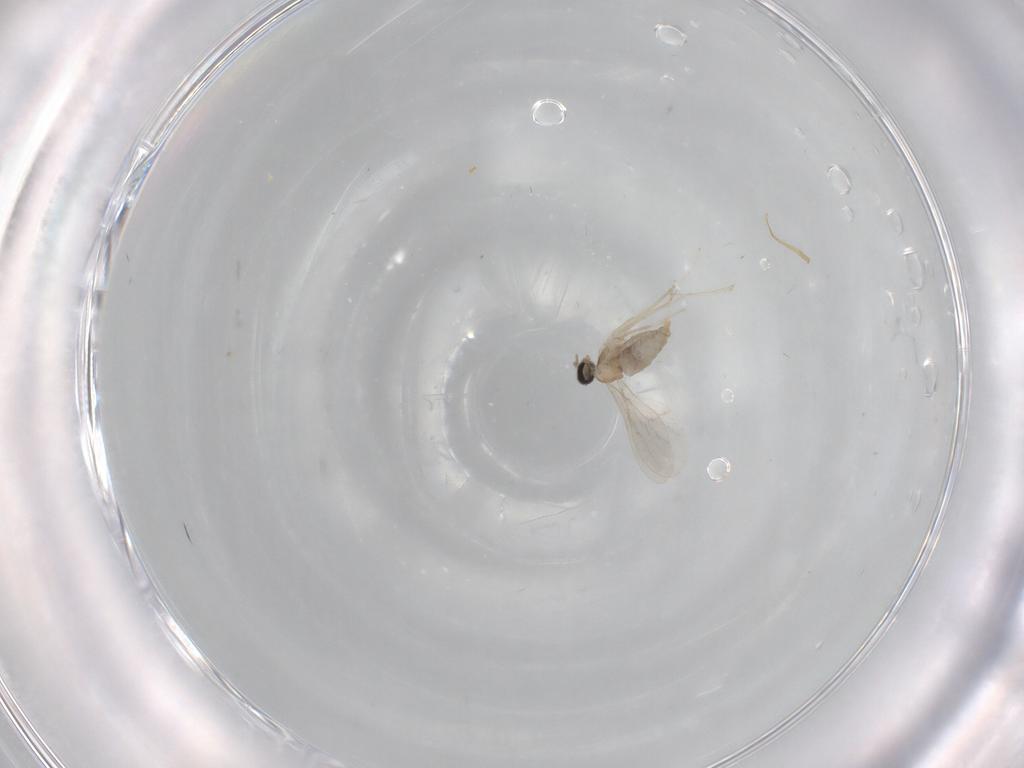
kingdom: Animalia
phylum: Arthropoda
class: Insecta
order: Diptera
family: Cecidomyiidae
